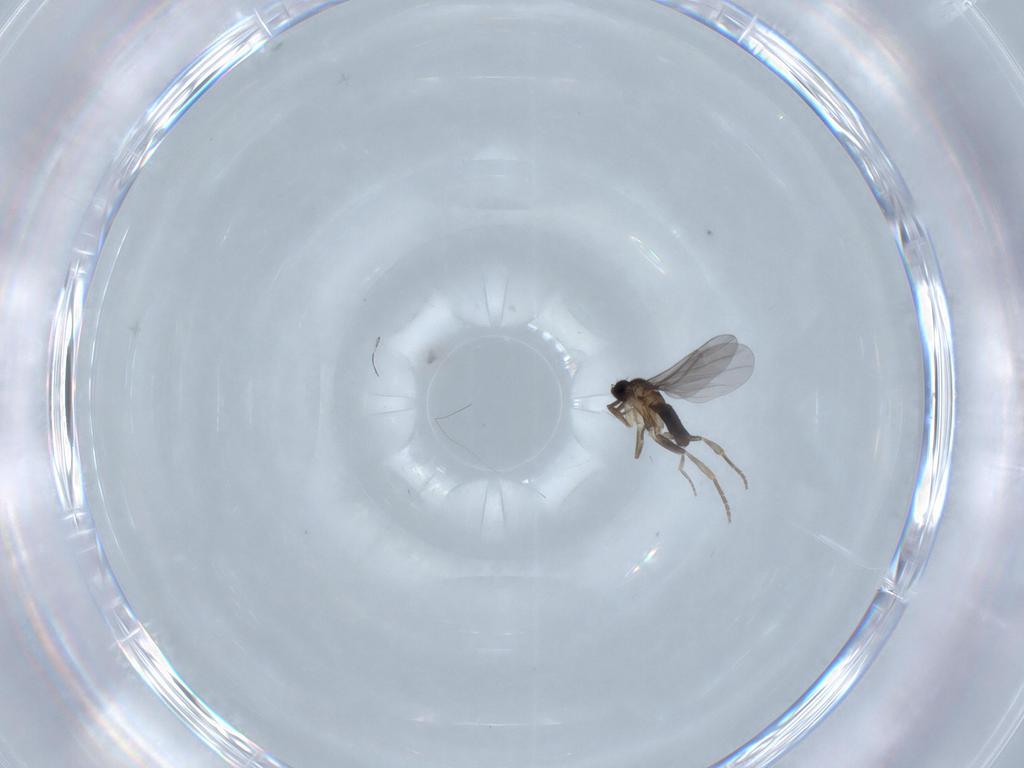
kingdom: Animalia
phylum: Arthropoda
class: Insecta
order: Diptera
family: Chironomidae
